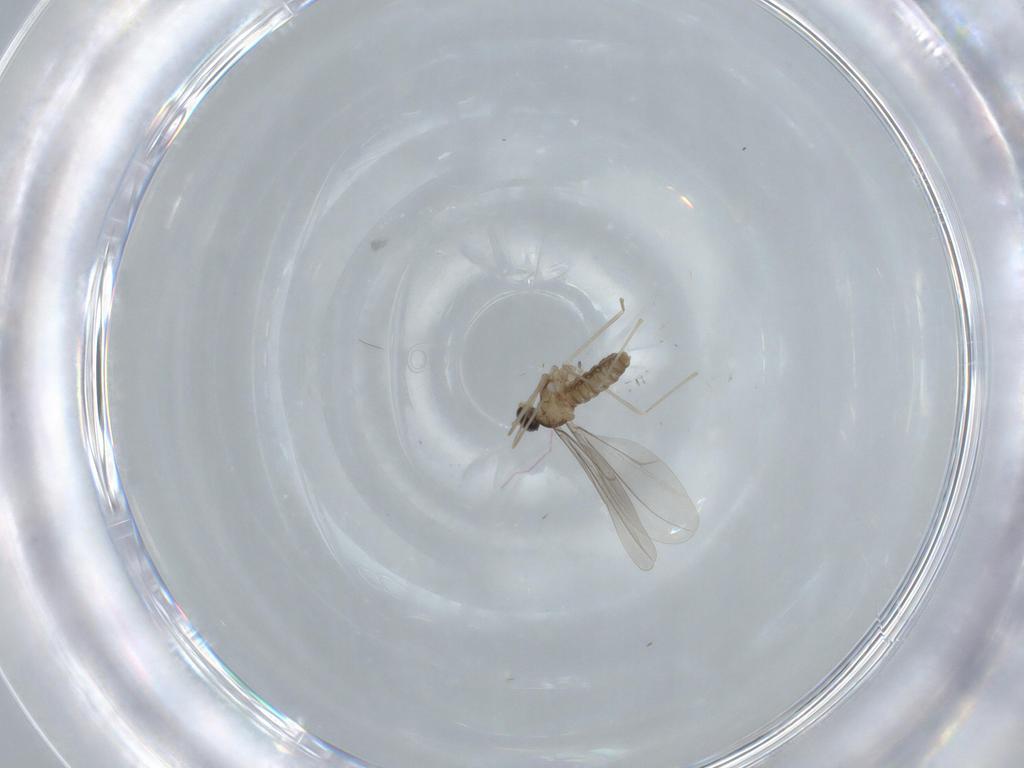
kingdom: Animalia
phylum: Arthropoda
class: Insecta
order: Diptera
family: Cecidomyiidae
